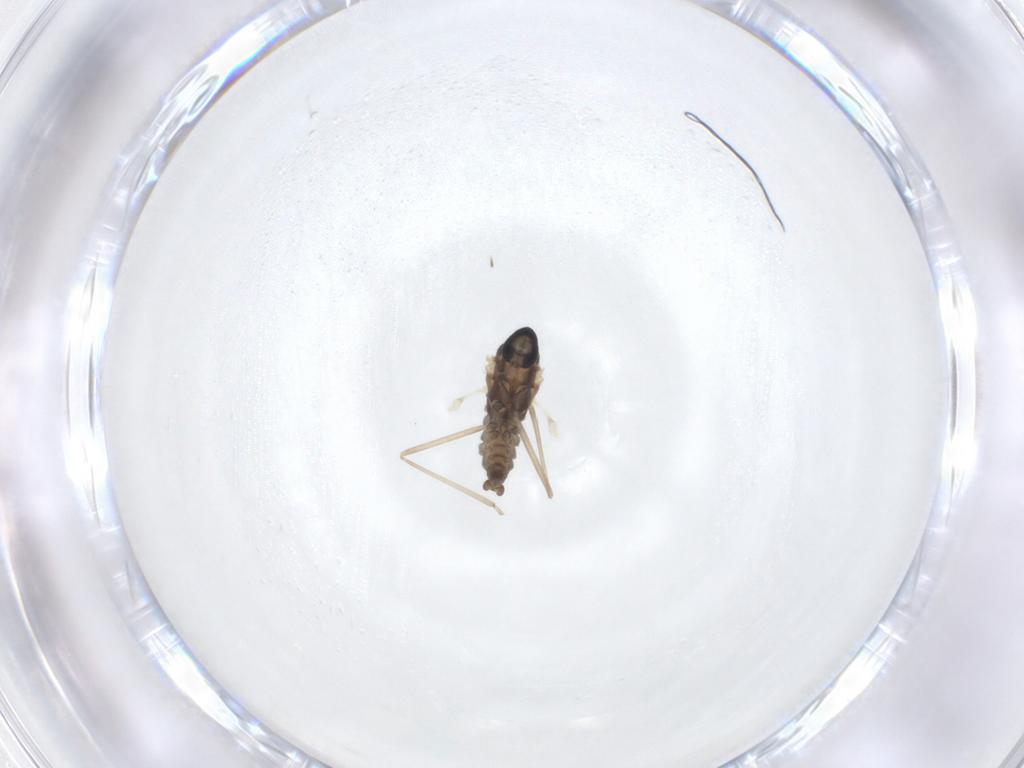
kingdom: Animalia
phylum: Arthropoda
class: Insecta
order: Diptera
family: Cecidomyiidae
